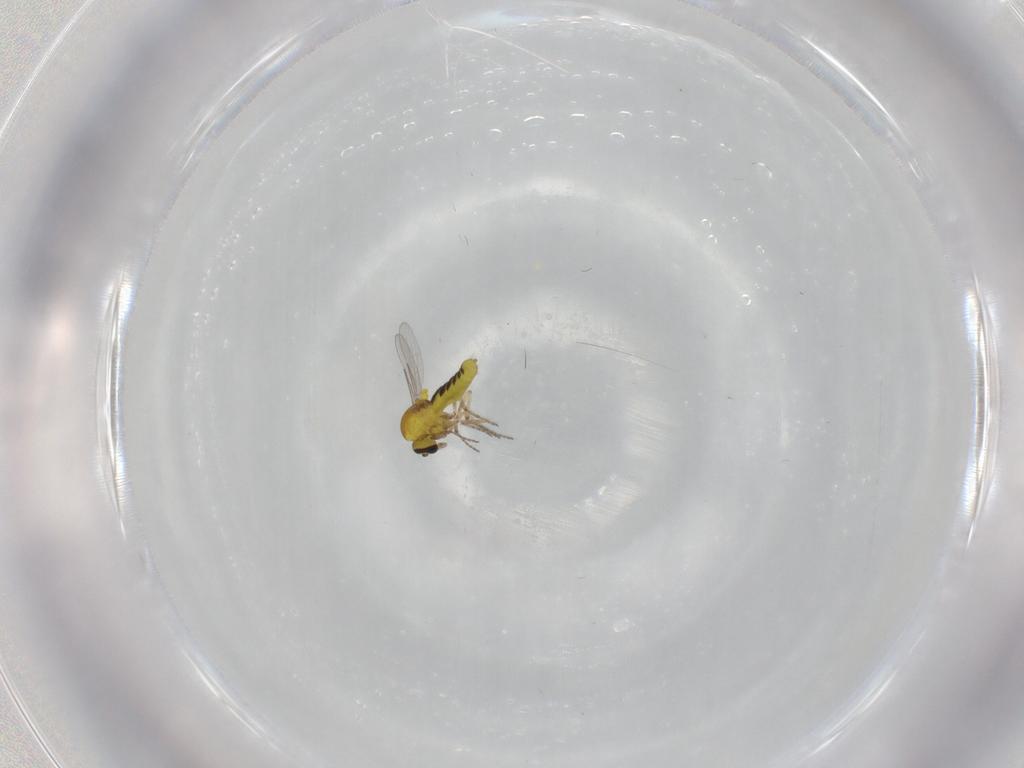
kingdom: Animalia
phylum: Arthropoda
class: Insecta
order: Diptera
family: Ceratopogonidae
